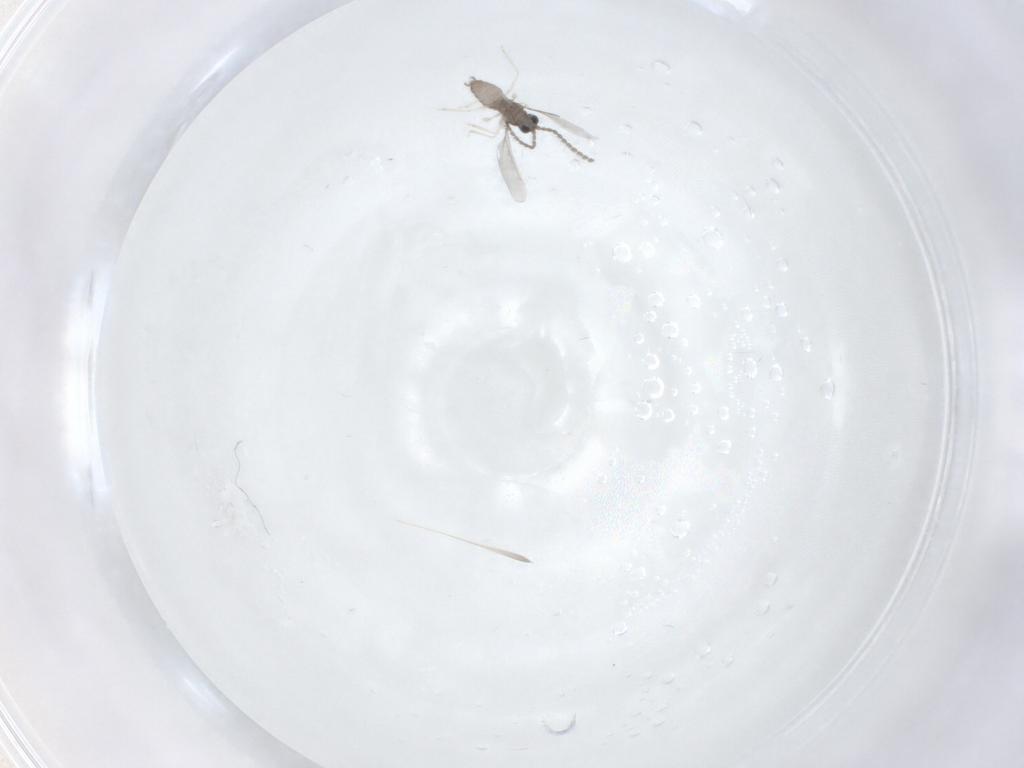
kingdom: Animalia
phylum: Arthropoda
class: Insecta
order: Diptera
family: Cecidomyiidae
